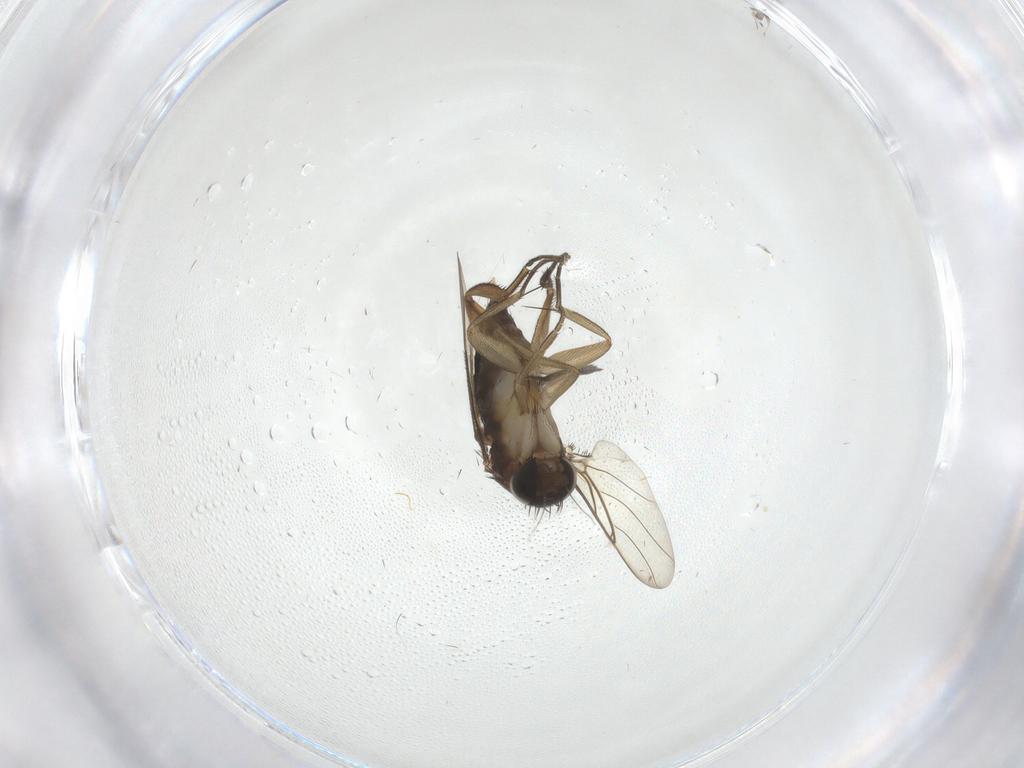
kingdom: Animalia
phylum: Arthropoda
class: Insecta
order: Diptera
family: Phoridae
